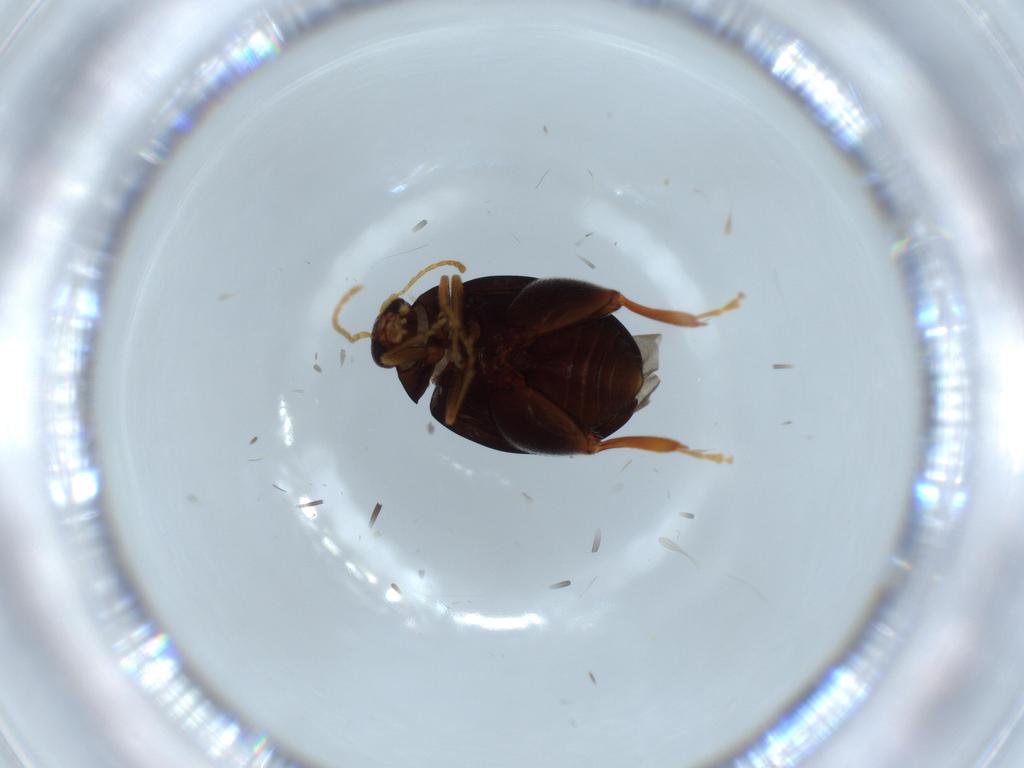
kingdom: Animalia
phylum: Arthropoda
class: Insecta
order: Coleoptera
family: Chrysomelidae
